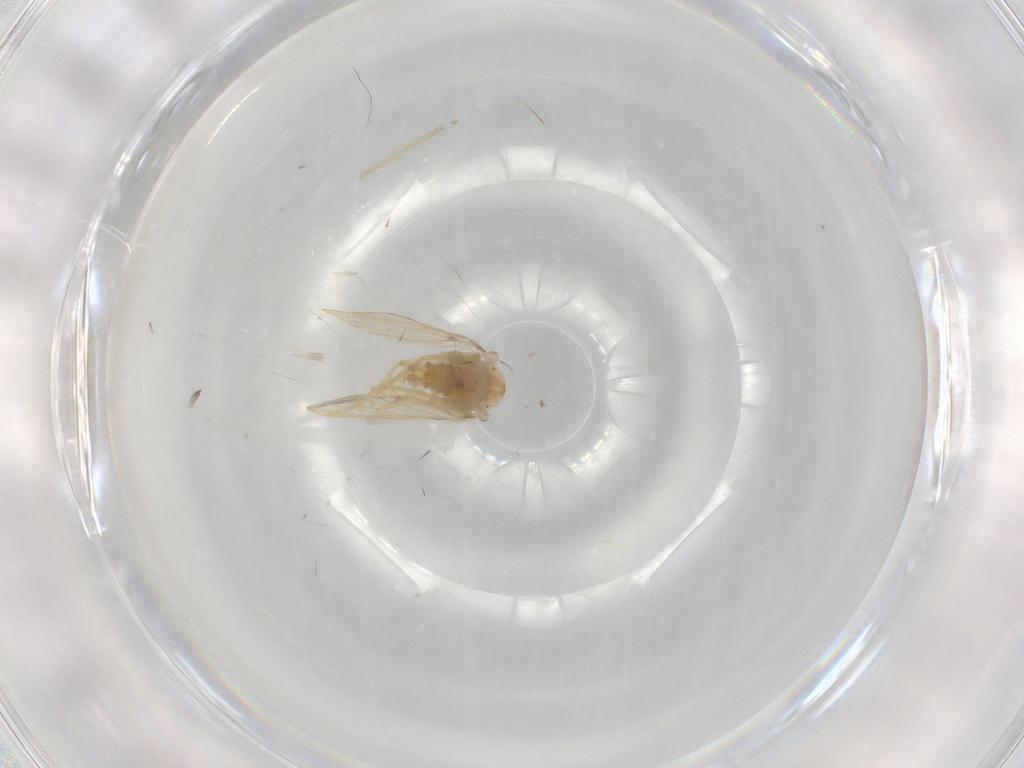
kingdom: Animalia
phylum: Arthropoda
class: Insecta
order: Diptera
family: Psychodidae
